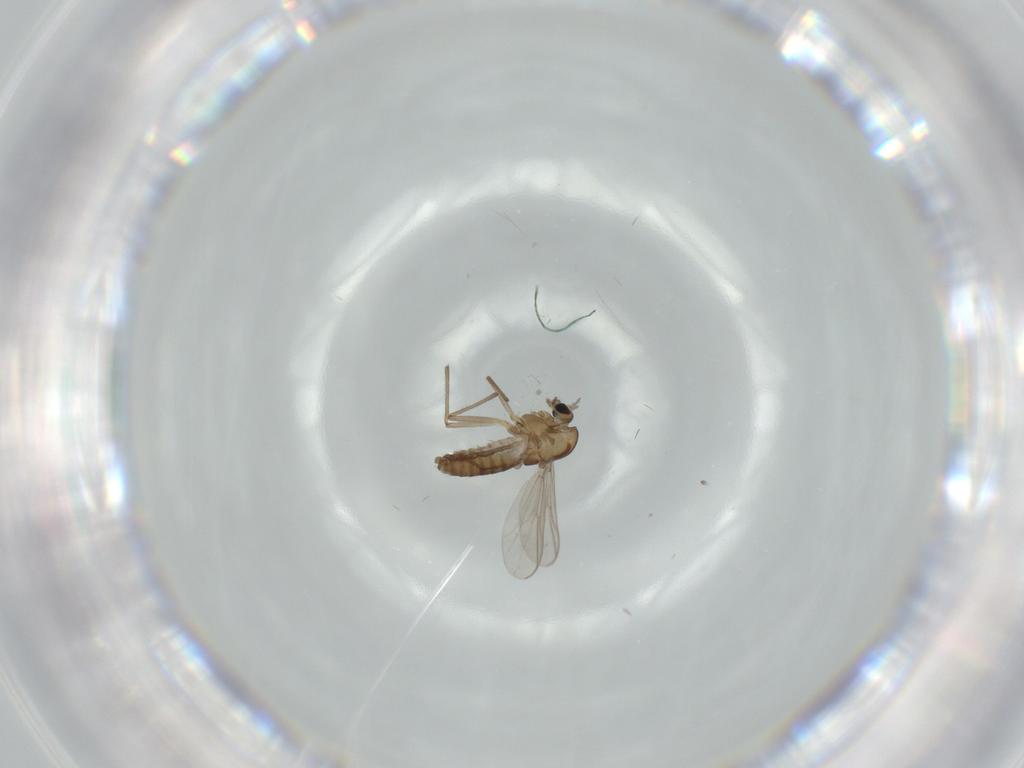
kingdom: Animalia
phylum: Arthropoda
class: Insecta
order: Diptera
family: Chironomidae
